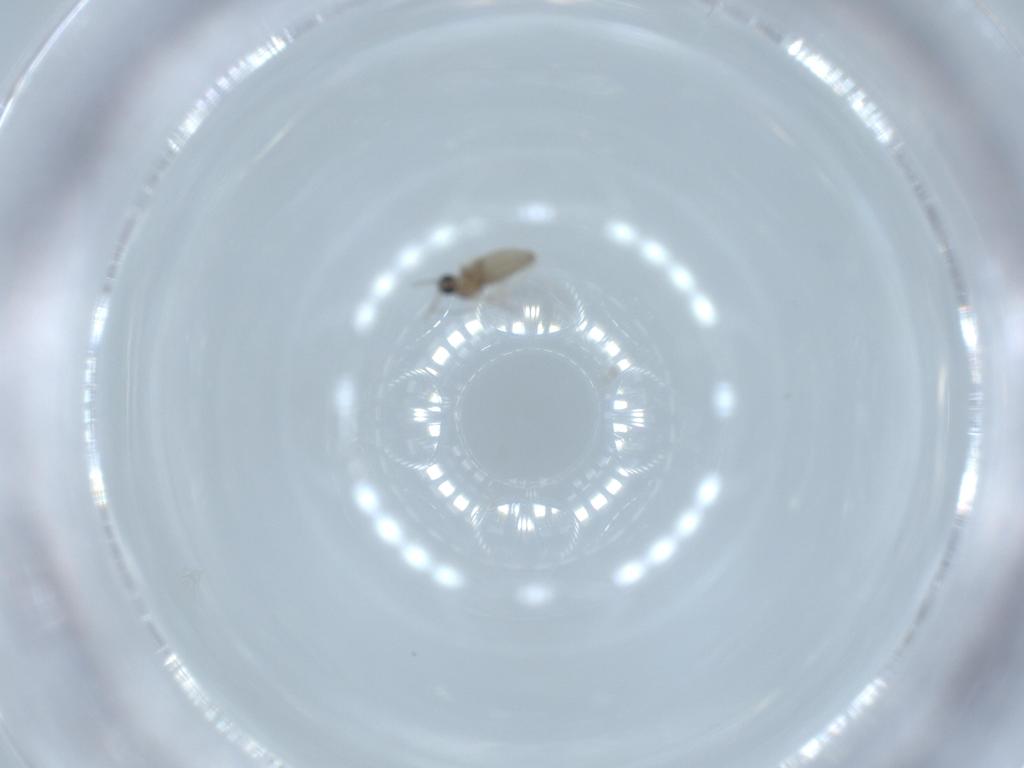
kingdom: Animalia
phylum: Arthropoda
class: Insecta
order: Diptera
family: Cecidomyiidae
